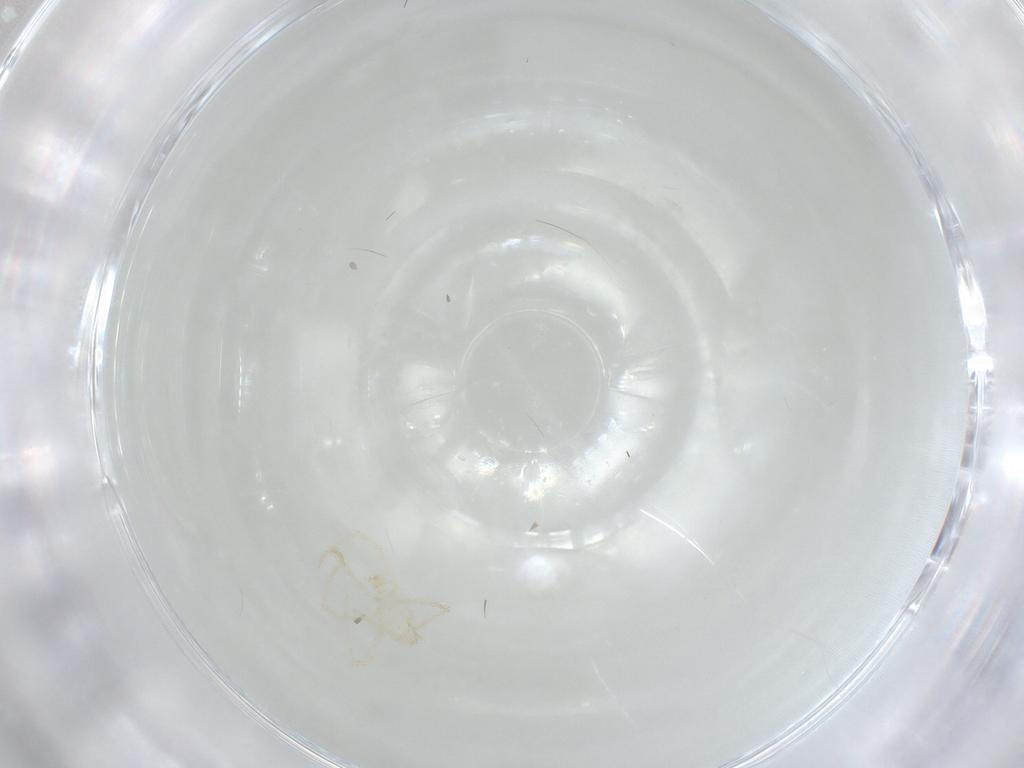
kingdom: Animalia
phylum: Arthropoda
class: Arachnida
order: Trombidiformes
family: Erythraeidae
